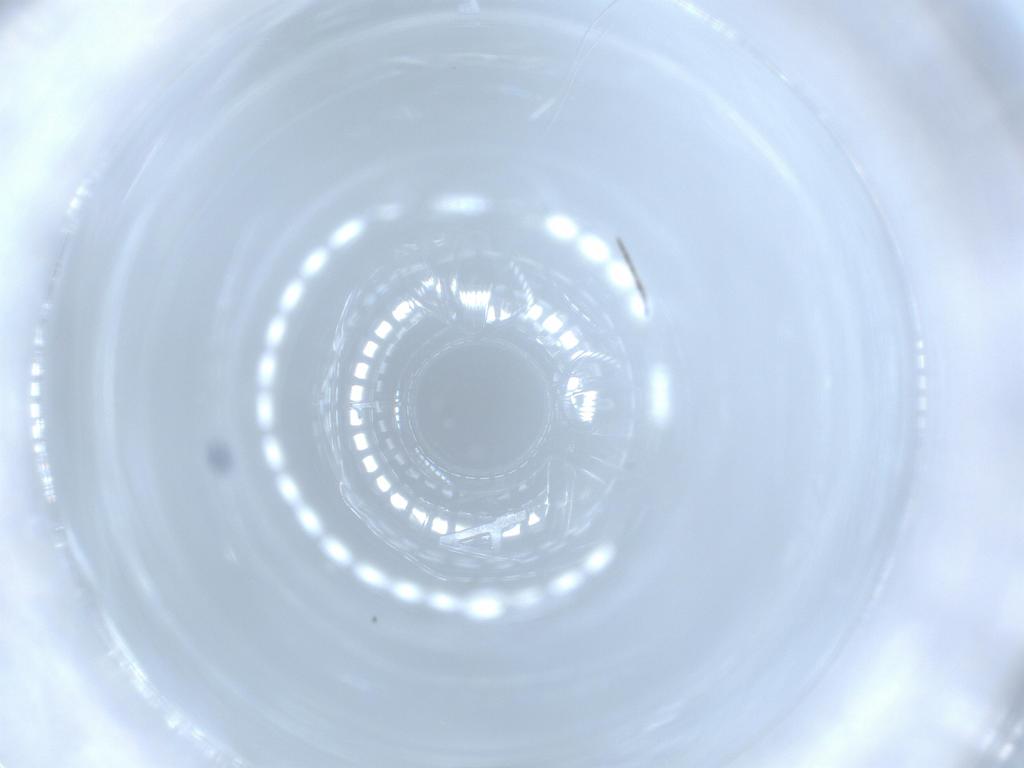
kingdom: Animalia
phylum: Arthropoda
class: Insecta
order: Diptera
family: Chironomidae
